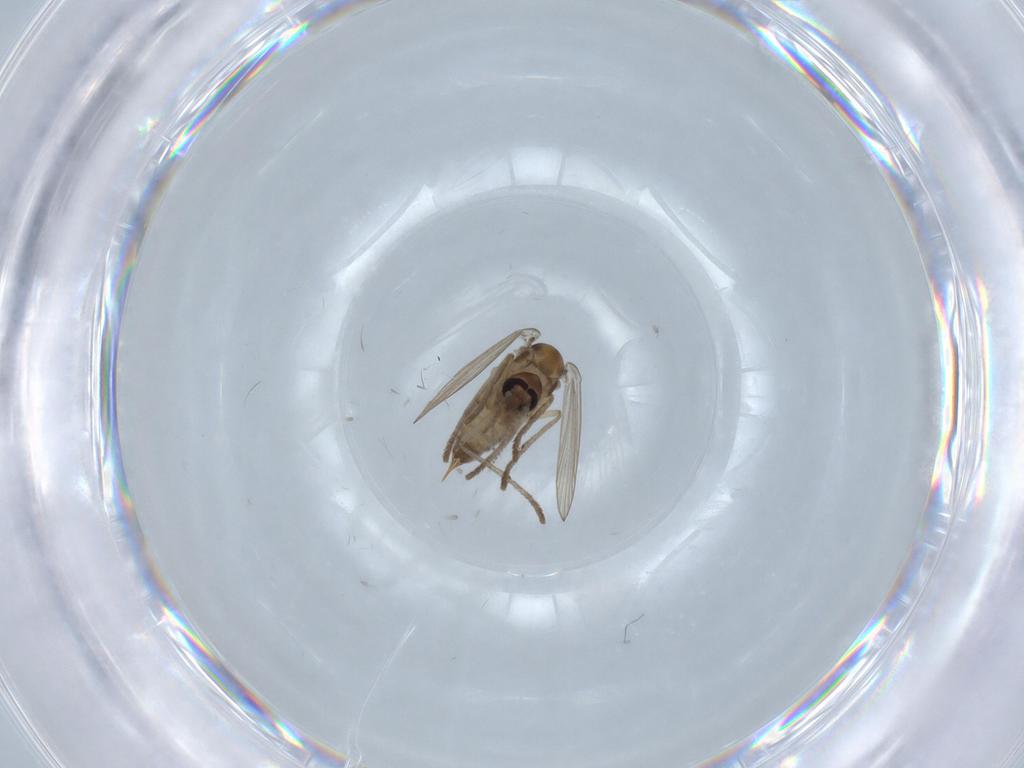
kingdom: Animalia
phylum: Arthropoda
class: Insecta
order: Diptera
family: Psychodidae
